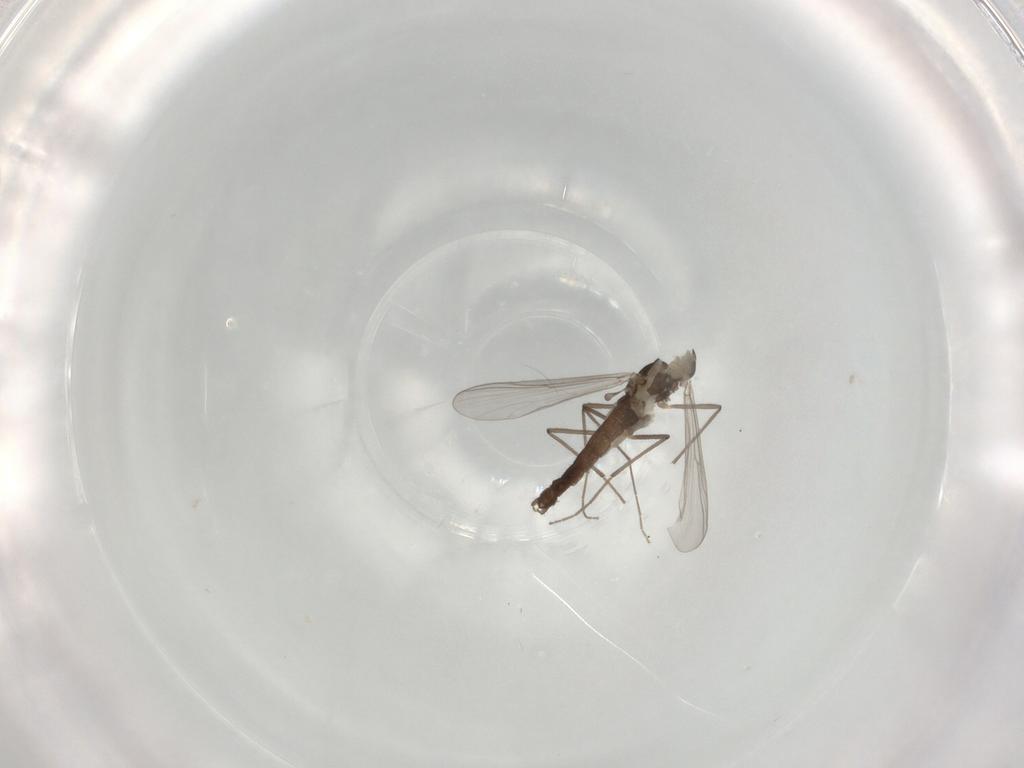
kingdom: Animalia
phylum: Arthropoda
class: Insecta
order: Diptera
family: Chironomidae
